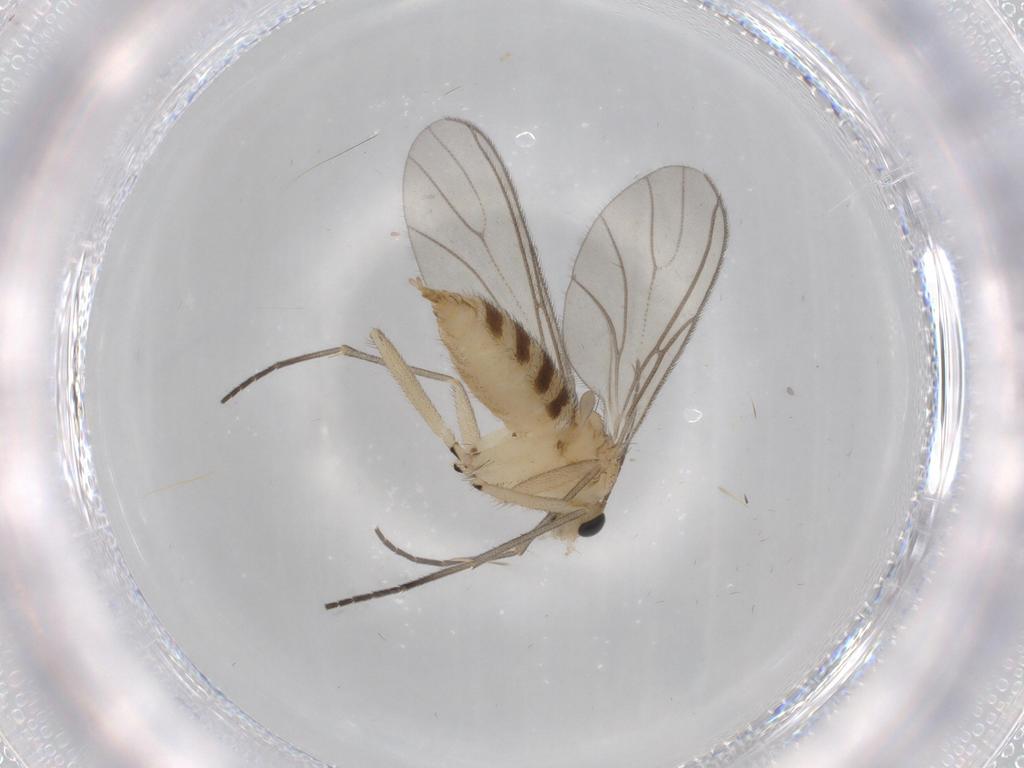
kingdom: Animalia
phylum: Arthropoda
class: Insecta
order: Diptera
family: Sciaridae
